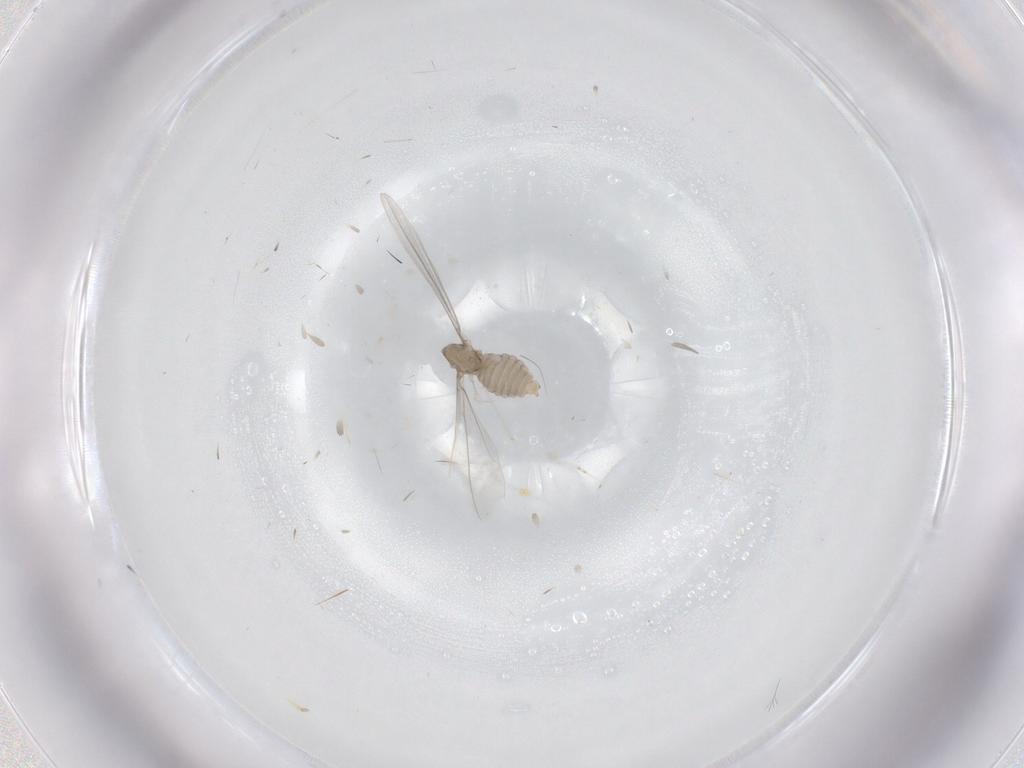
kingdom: Animalia
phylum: Arthropoda
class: Insecta
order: Diptera
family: Cecidomyiidae
